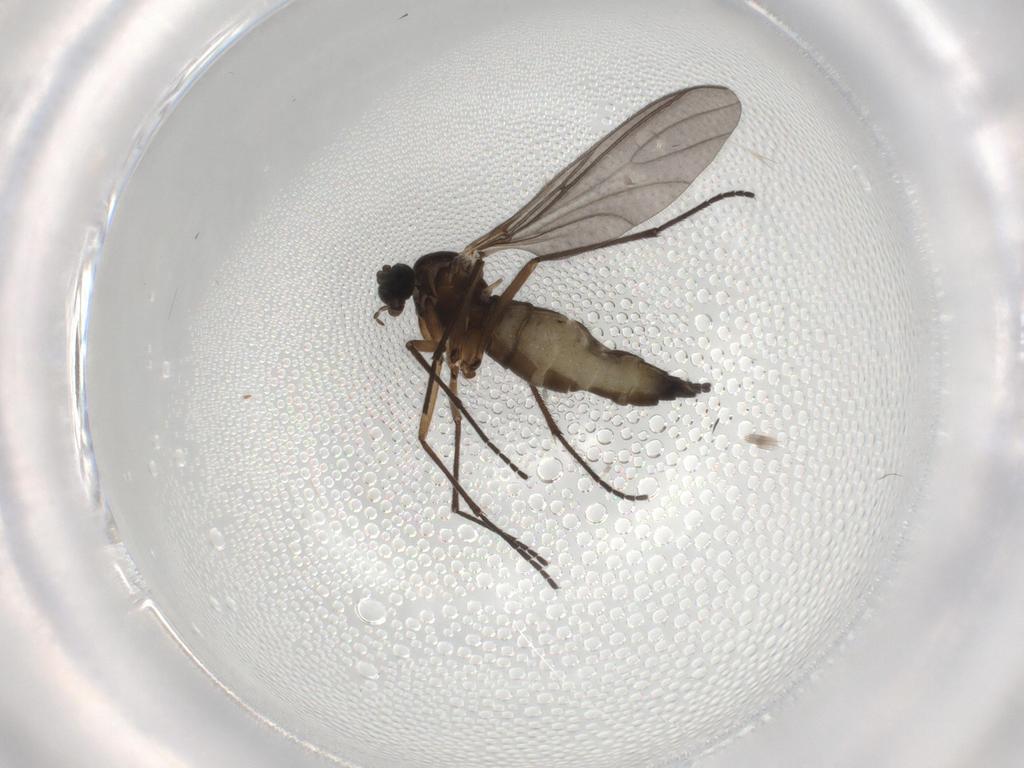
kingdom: Animalia
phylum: Arthropoda
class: Insecta
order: Diptera
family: Sciaridae
